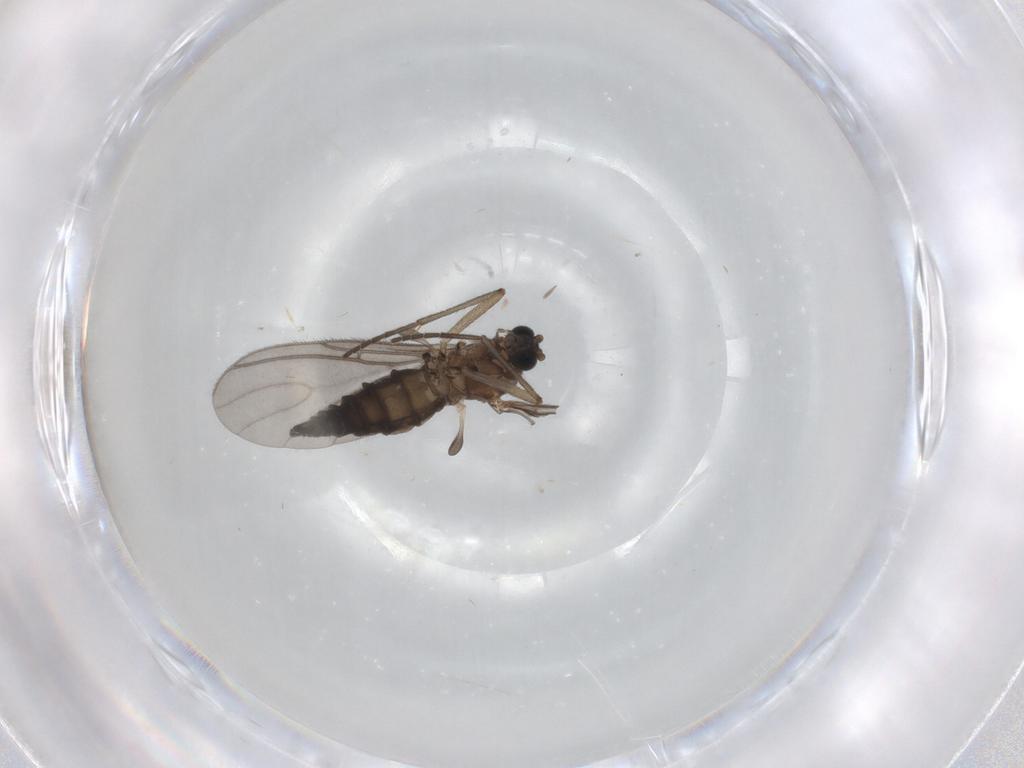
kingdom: Animalia
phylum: Arthropoda
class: Insecta
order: Diptera
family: Sciaridae
